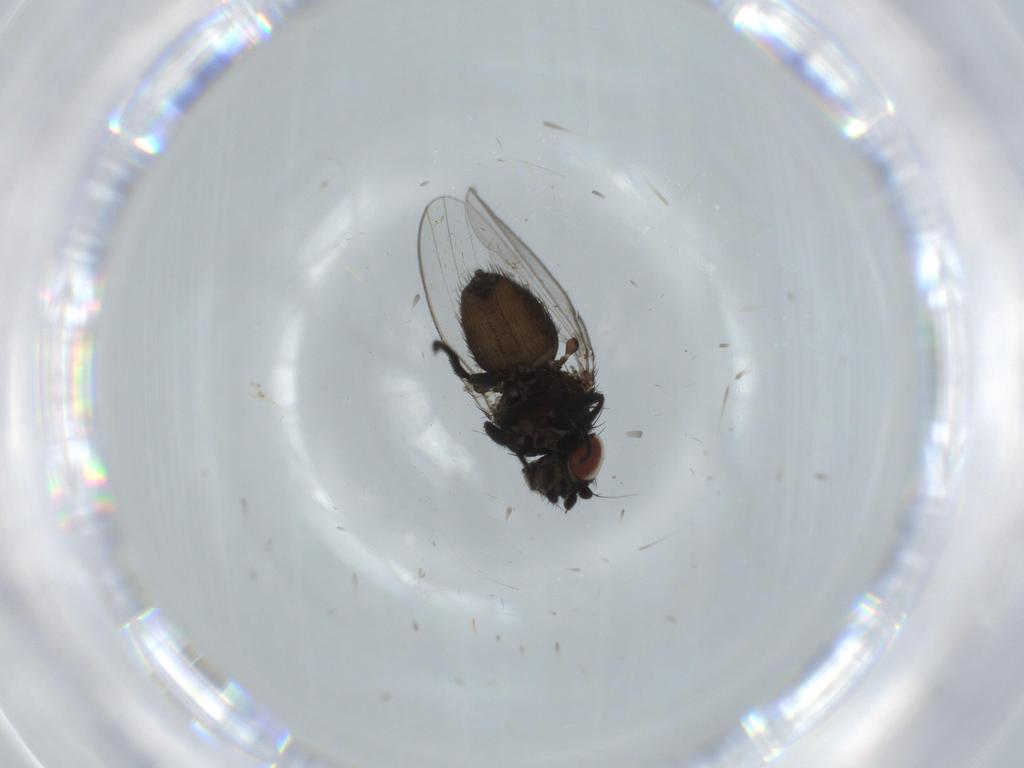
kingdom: Animalia
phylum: Arthropoda
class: Insecta
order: Diptera
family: Milichiidae
